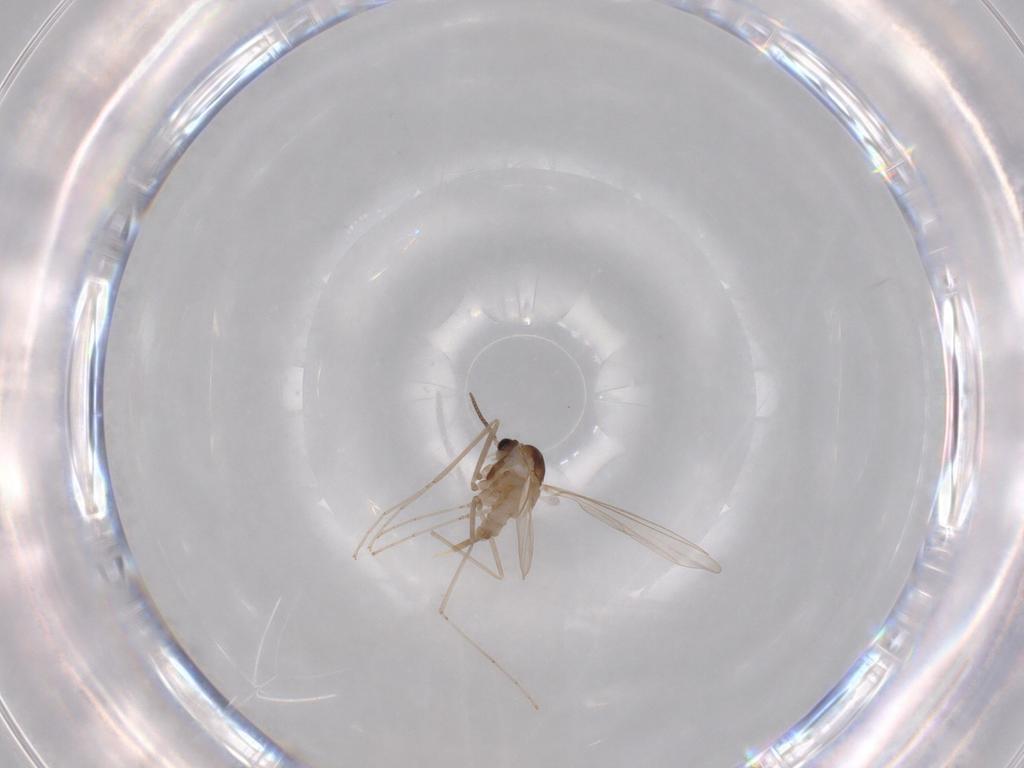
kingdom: Animalia
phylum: Arthropoda
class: Insecta
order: Diptera
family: Cecidomyiidae
